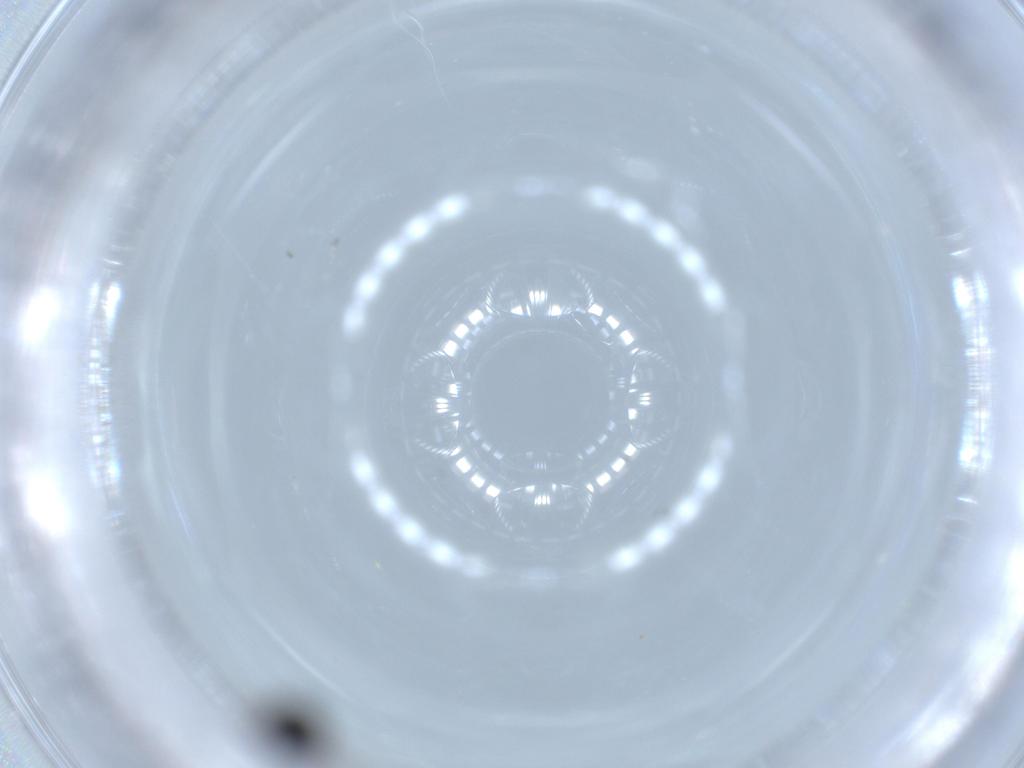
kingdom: Animalia
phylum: Arthropoda
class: Insecta
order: Hymenoptera
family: Scelionidae
